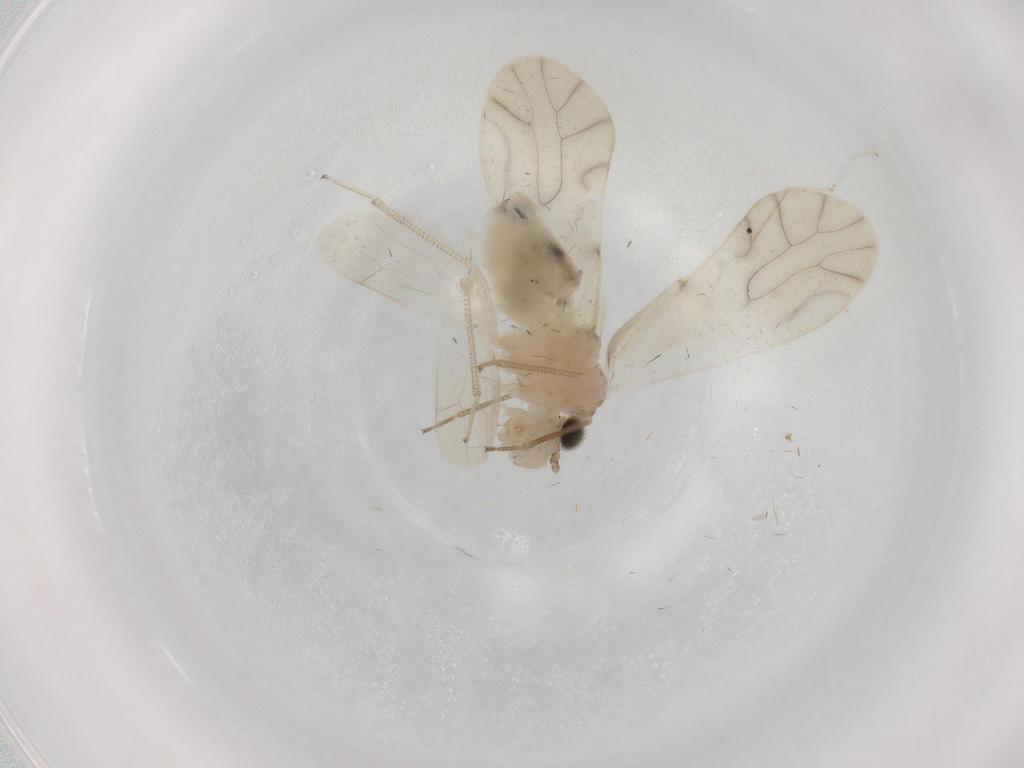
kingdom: Animalia
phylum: Arthropoda
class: Insecta
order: Psocodea
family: Caeciliusidae
